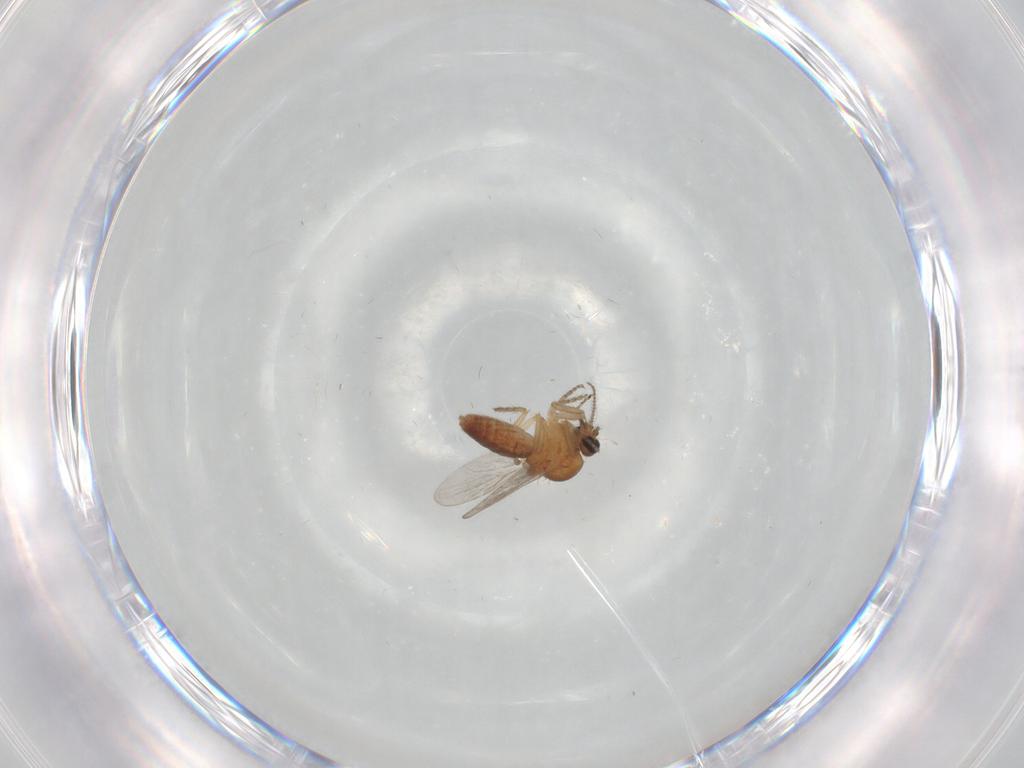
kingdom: Animalia
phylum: Arthropoda
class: Insecta
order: Diptera
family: Ceratopogonidae
